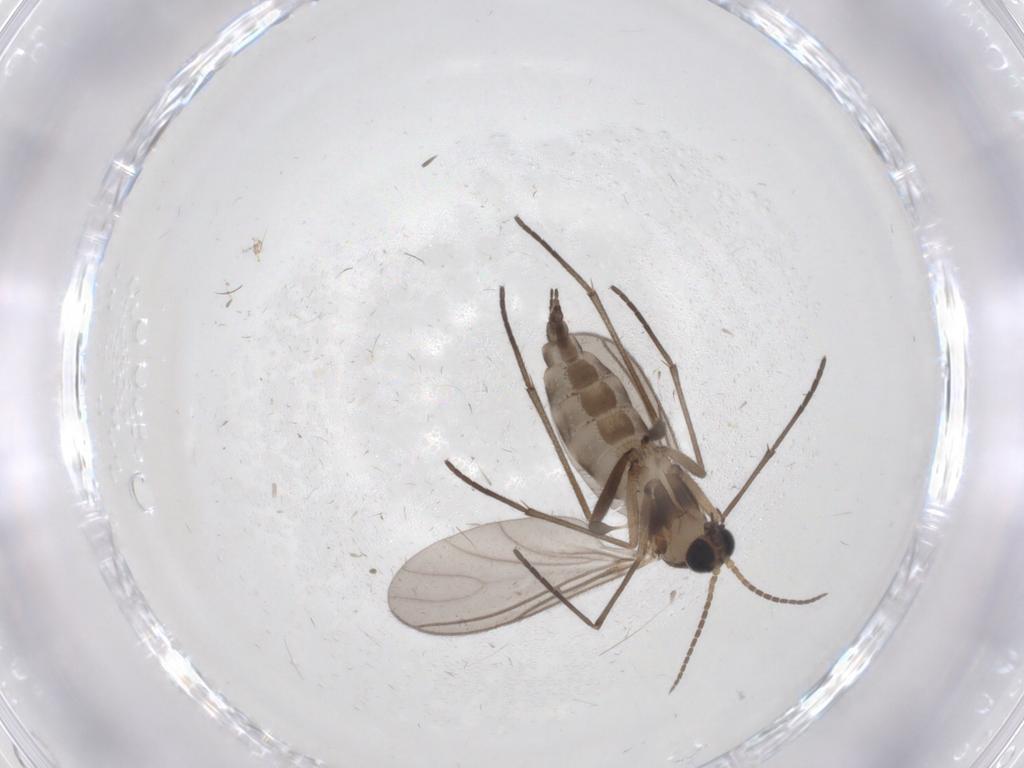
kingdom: Animalia
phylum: Arthropoda
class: Insecta
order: Diptera
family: Sciaridae
